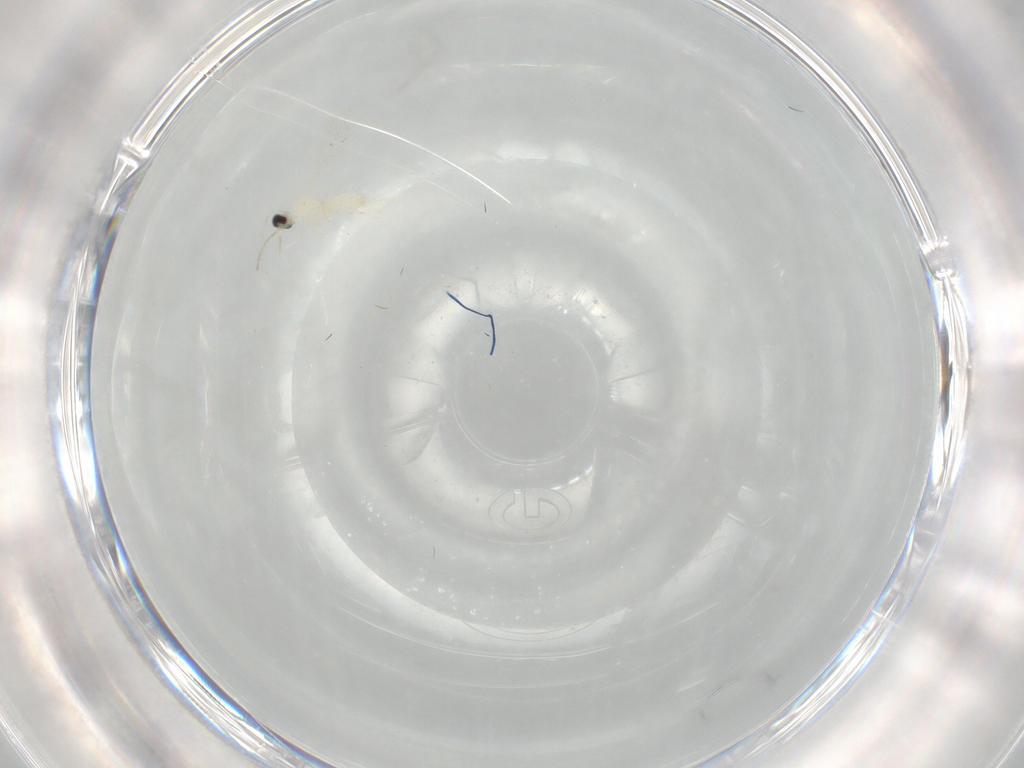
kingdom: Animalia
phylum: Arthropoda
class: Insecta
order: Diptera
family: Cecidomyiidae
